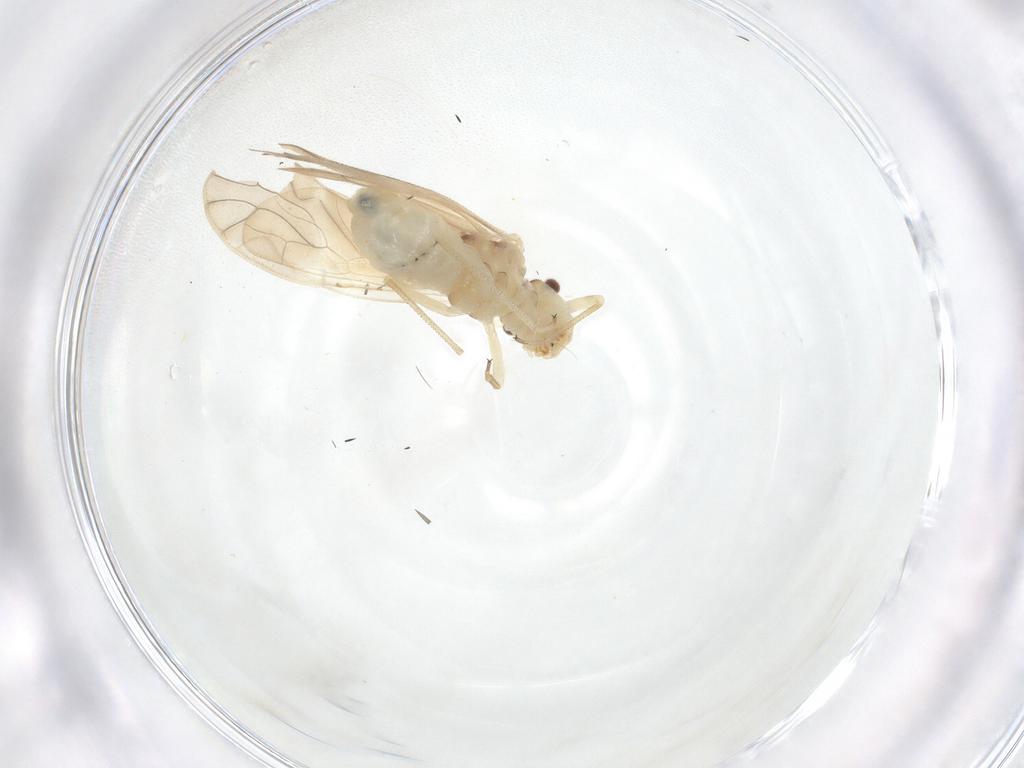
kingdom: Animalia
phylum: Arthropoda
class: Insecta
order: Psocodea
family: Caeciliusidae
